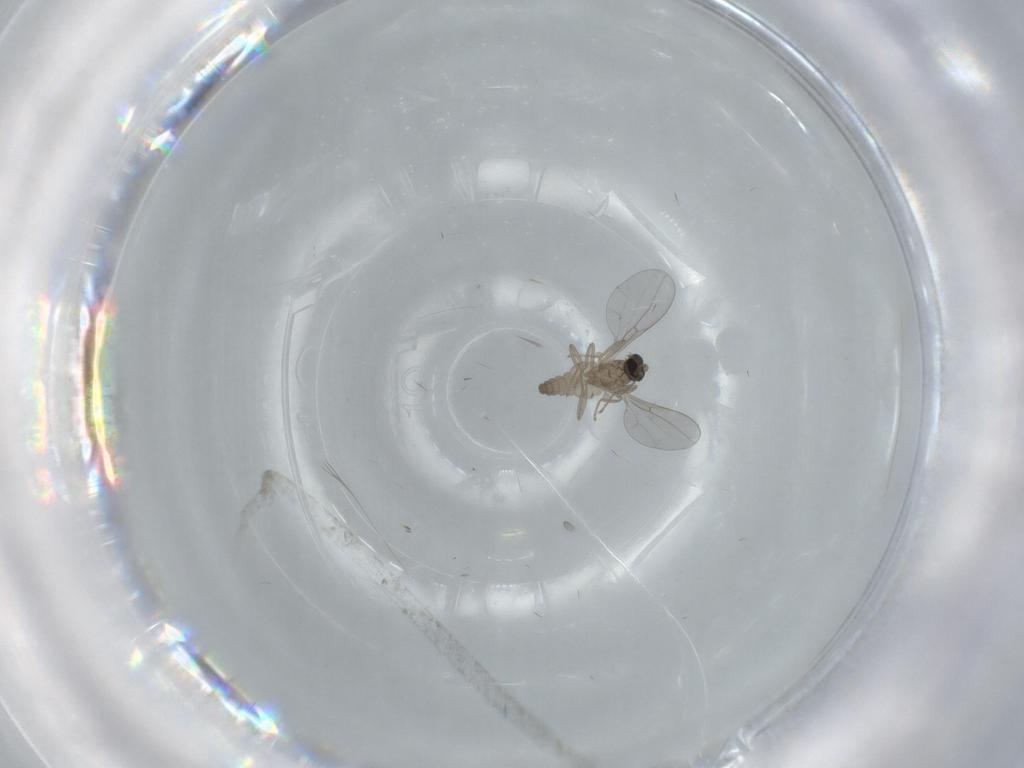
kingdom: Animalia
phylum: Arthropoda
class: Insecta
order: Diptera
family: Cecidomyiidae
